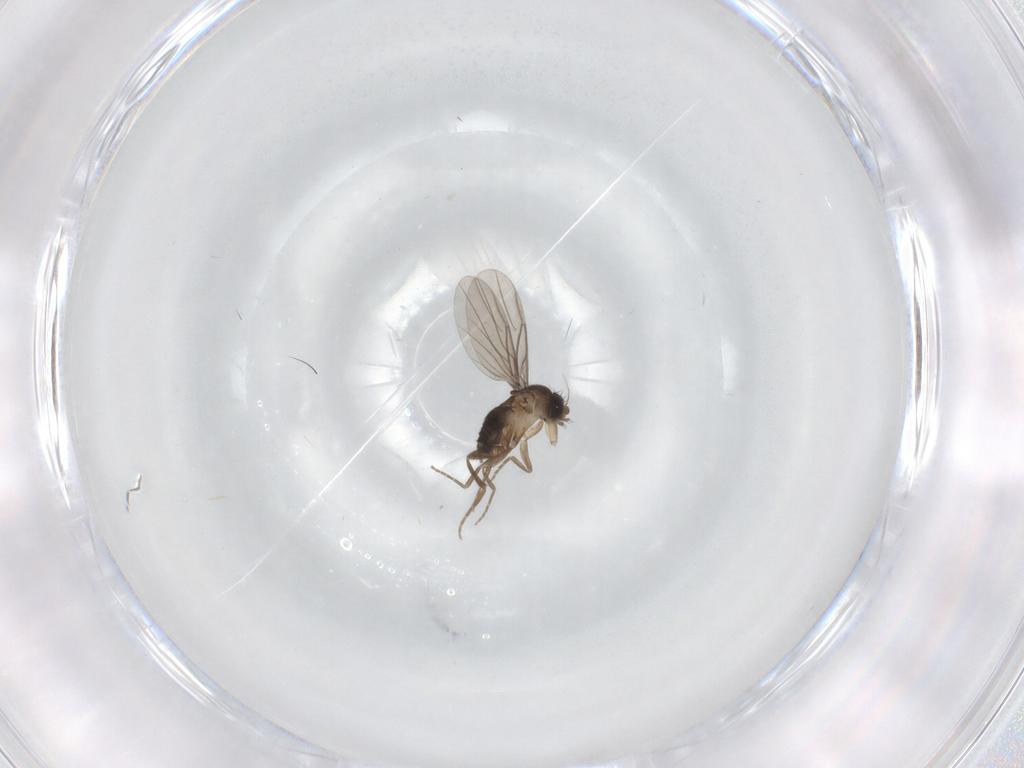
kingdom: Animalia
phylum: Arthropoda
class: Insecta
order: Diptera
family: Phoridae
